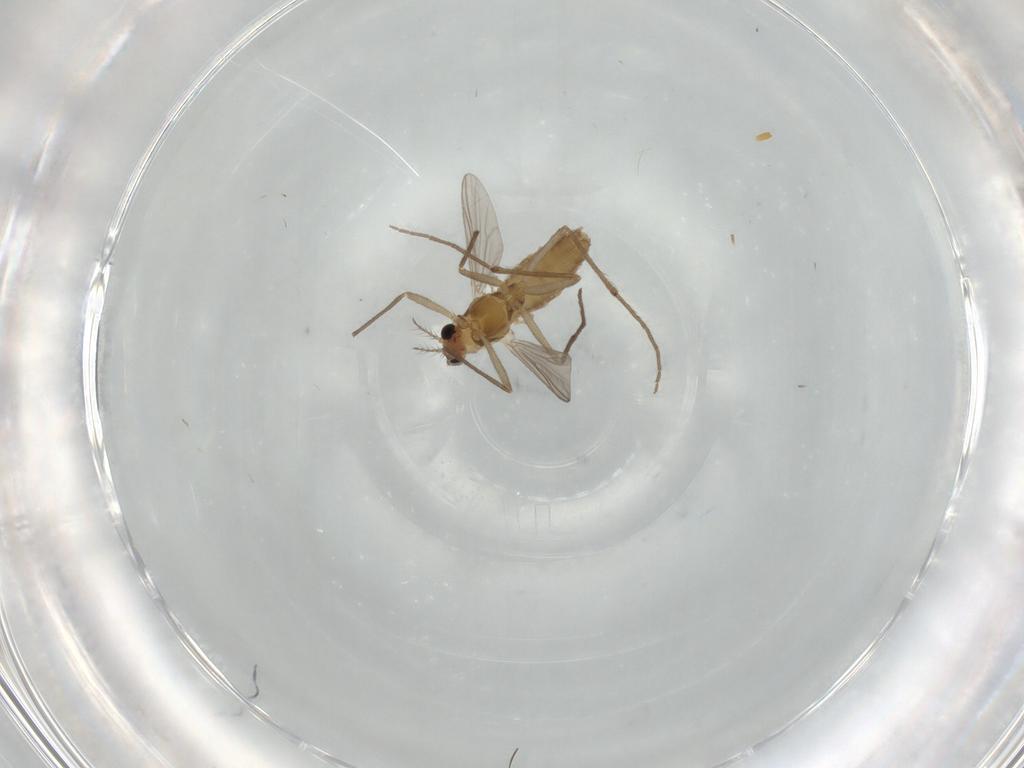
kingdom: Animalia
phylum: Arthropoda
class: Insecta
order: Diptera
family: Chironomidae
